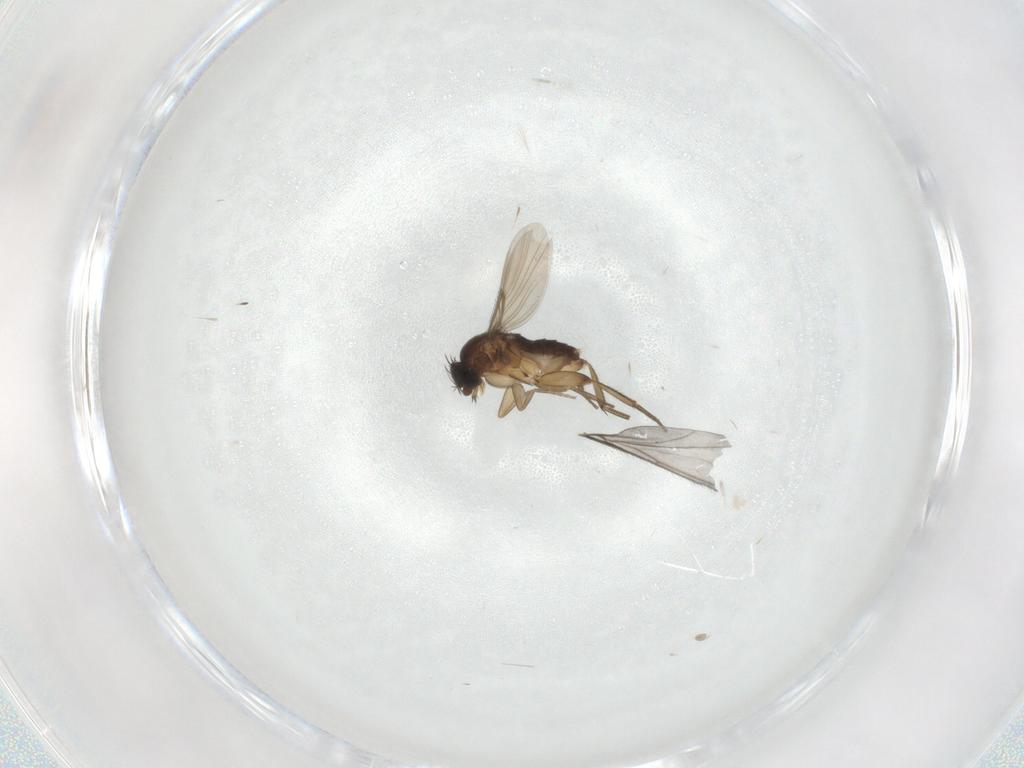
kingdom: Animalia
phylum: Arthropoda
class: Insecta
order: Diptera
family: Phoridae
